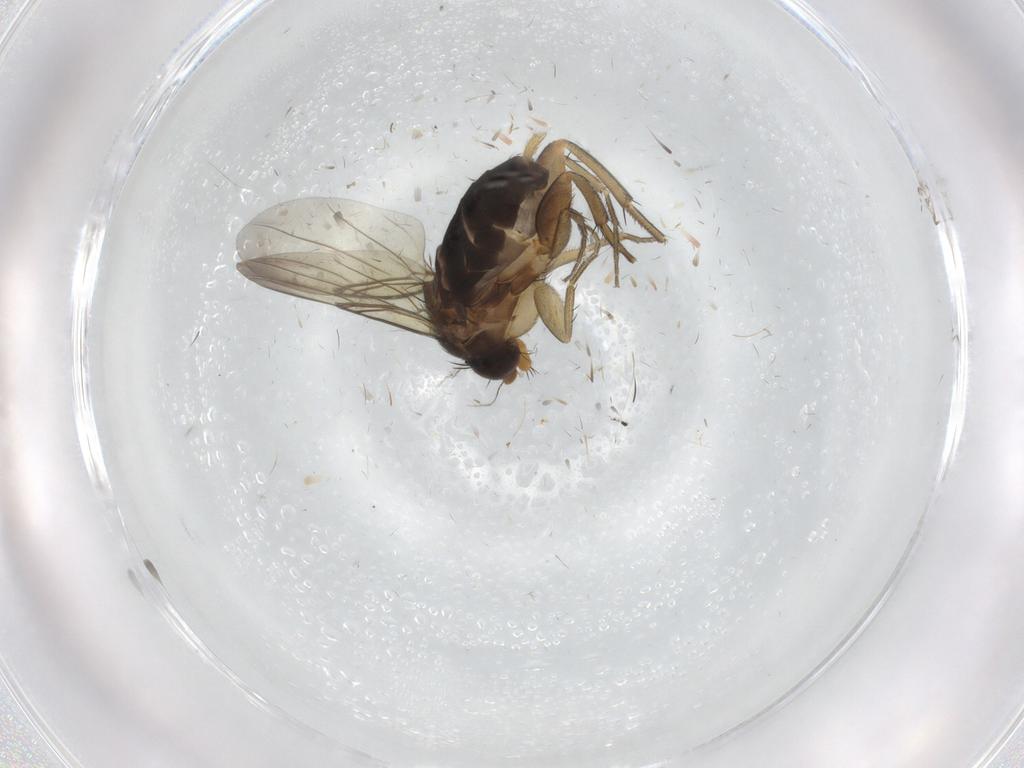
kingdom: Animalia
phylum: Arthropoda
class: Insecta
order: Diptera
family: Phoridae
